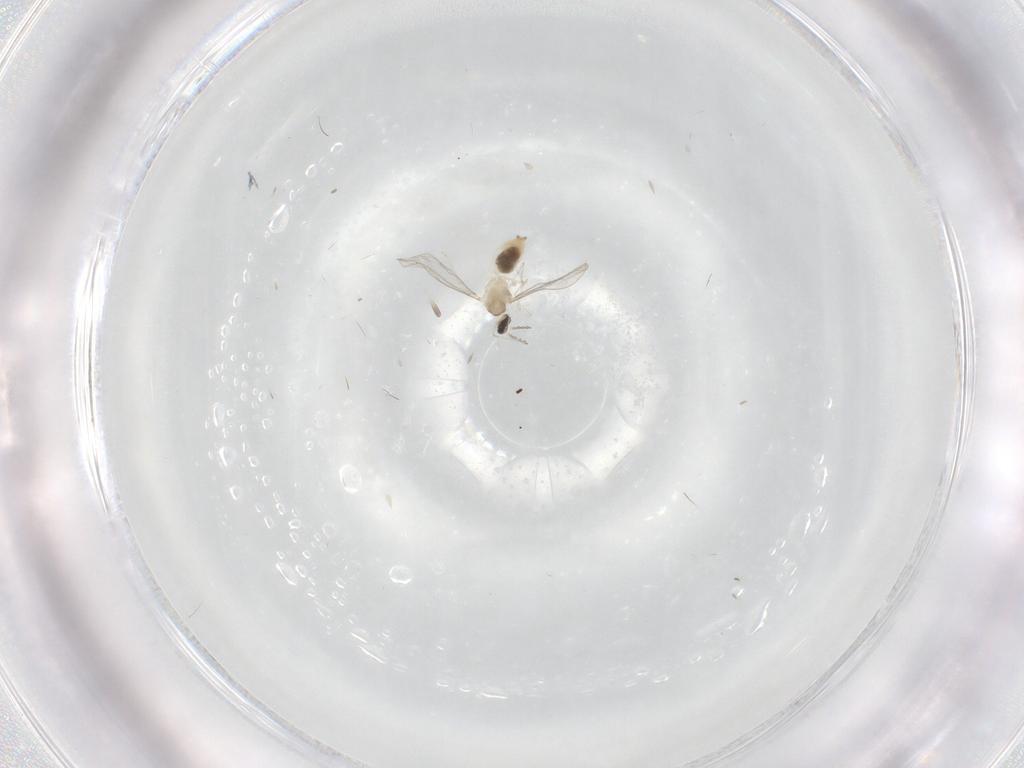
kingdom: Animalia
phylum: Arthropoda
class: Insecta
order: Diptera
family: Cecidomyiidae
